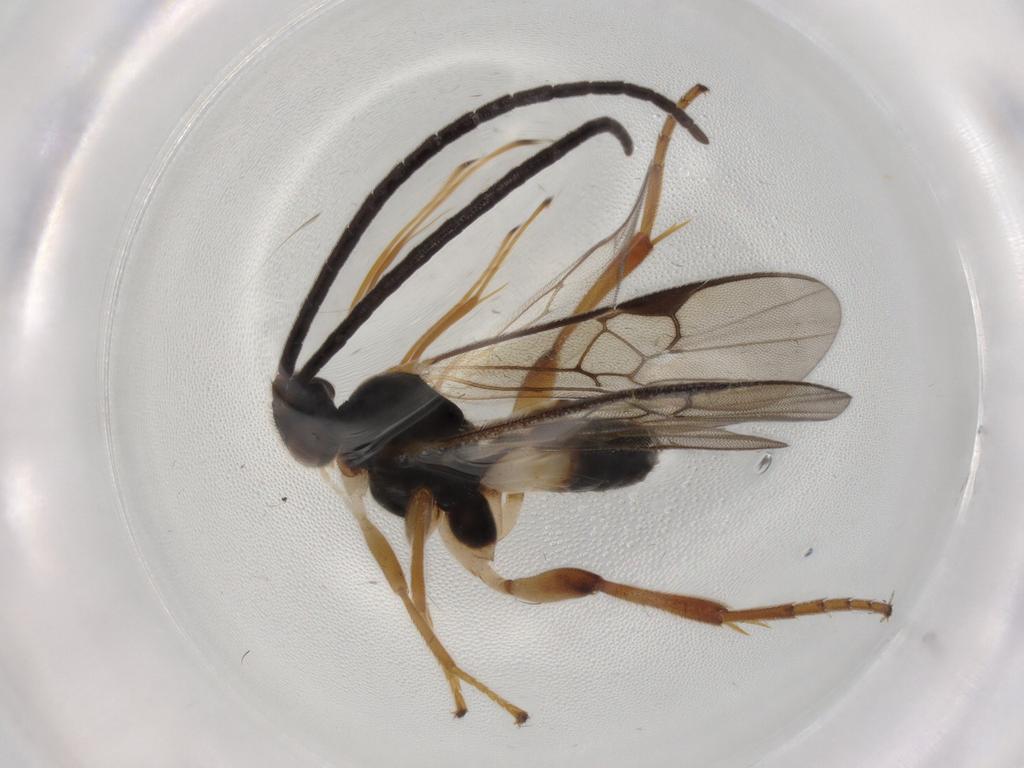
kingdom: Animalia
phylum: Arthropoda
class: Insecta
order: Hymenoptera
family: Braconidae
